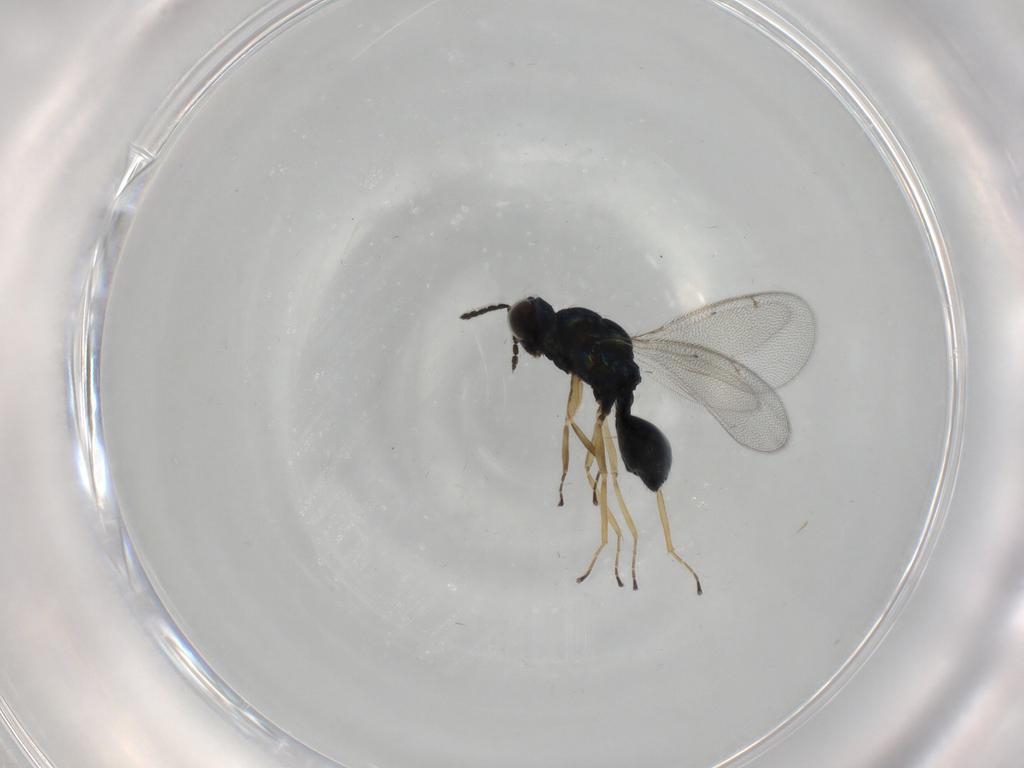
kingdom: Animalia
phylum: Arthropoda
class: Insecta
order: Hymenoptera
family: Eulophidae
